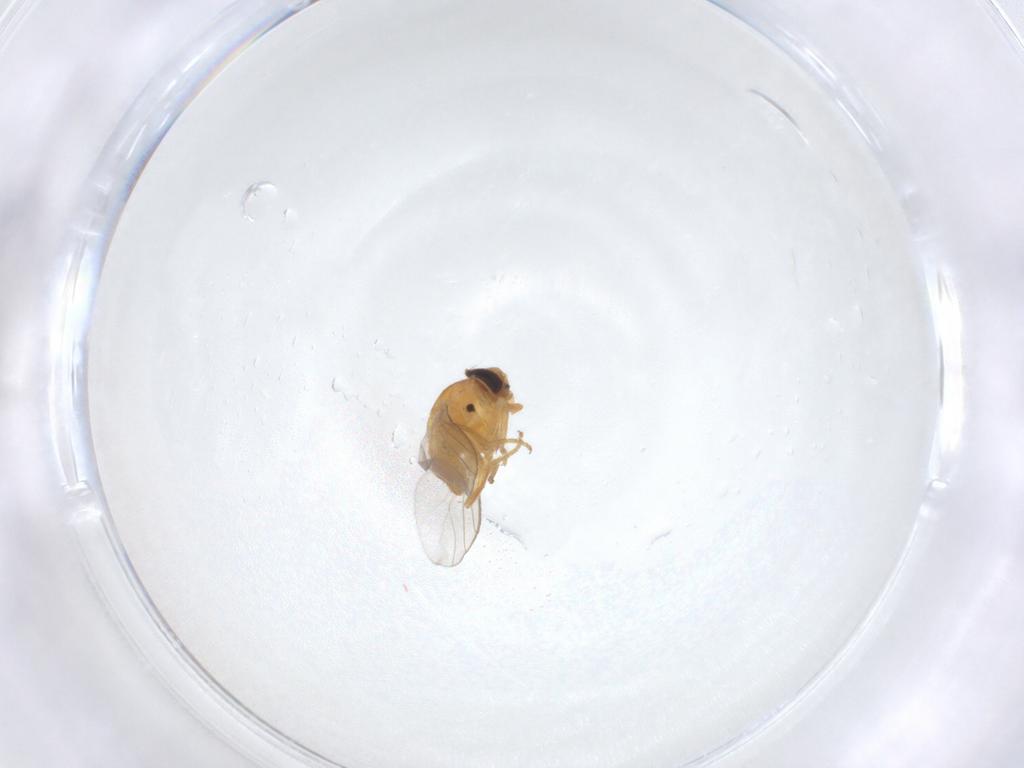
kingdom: Animalia
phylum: Arthropoda
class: Insecta
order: Diptera
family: Chloropidae
